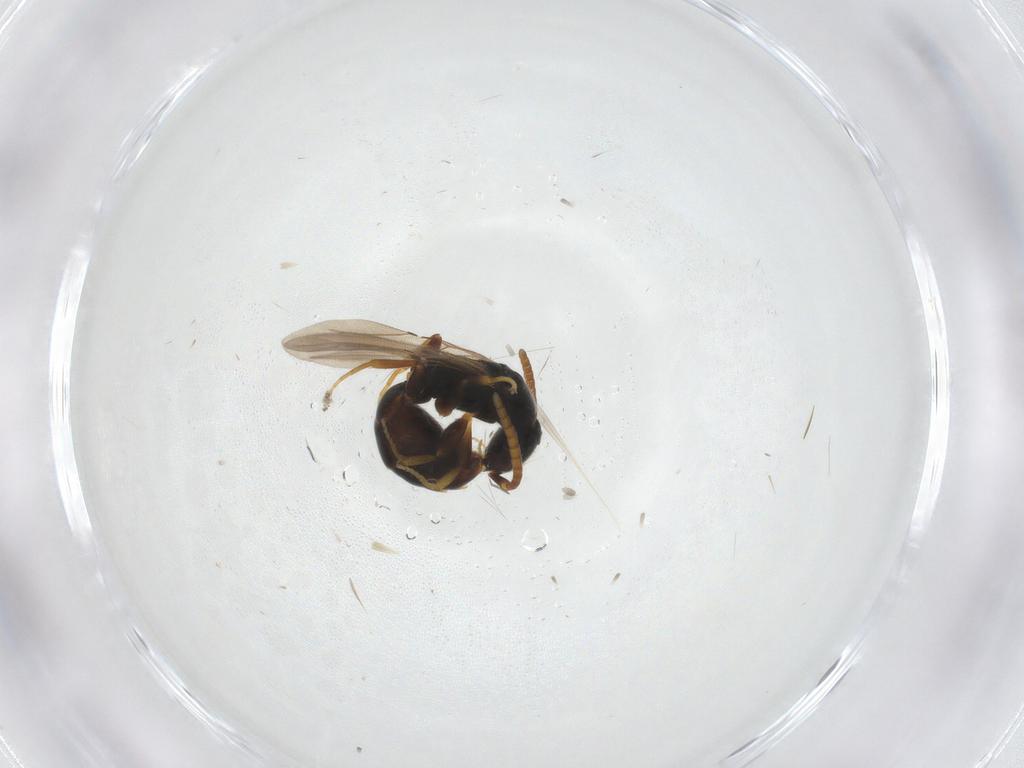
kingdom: Animalia
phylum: Arthropoda
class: Insecta
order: Hymenoptera
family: Bethylidae
